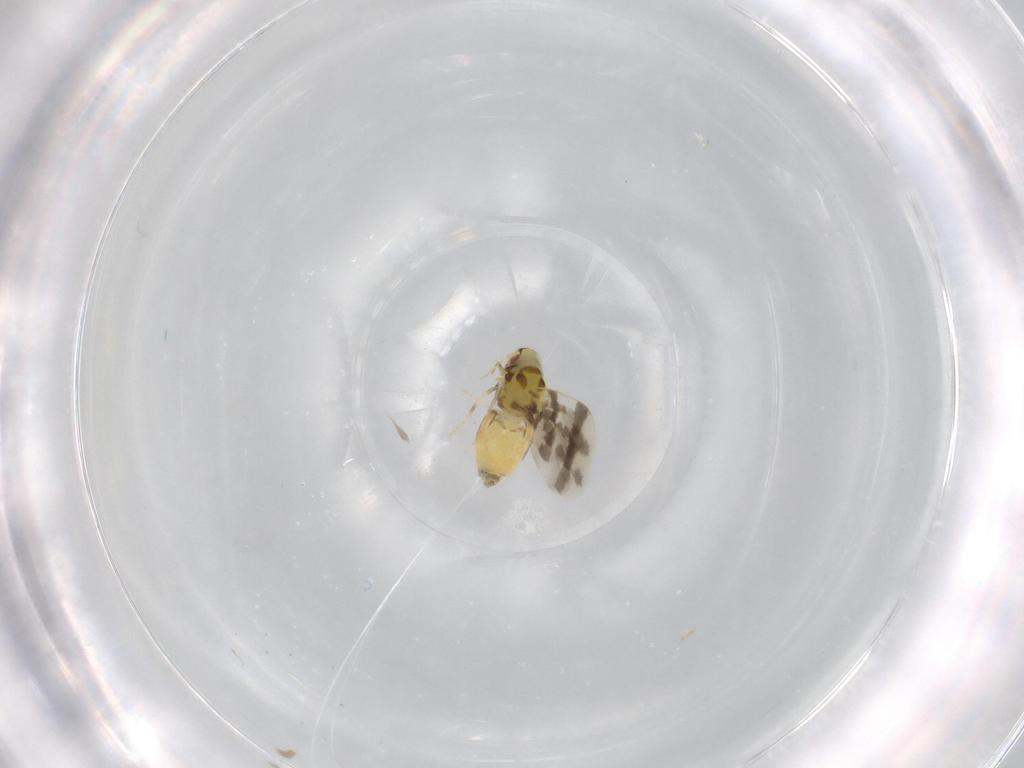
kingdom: Animalia
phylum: Arthropoda
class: Insecta
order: Hemiptera
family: Aleyrodidae
